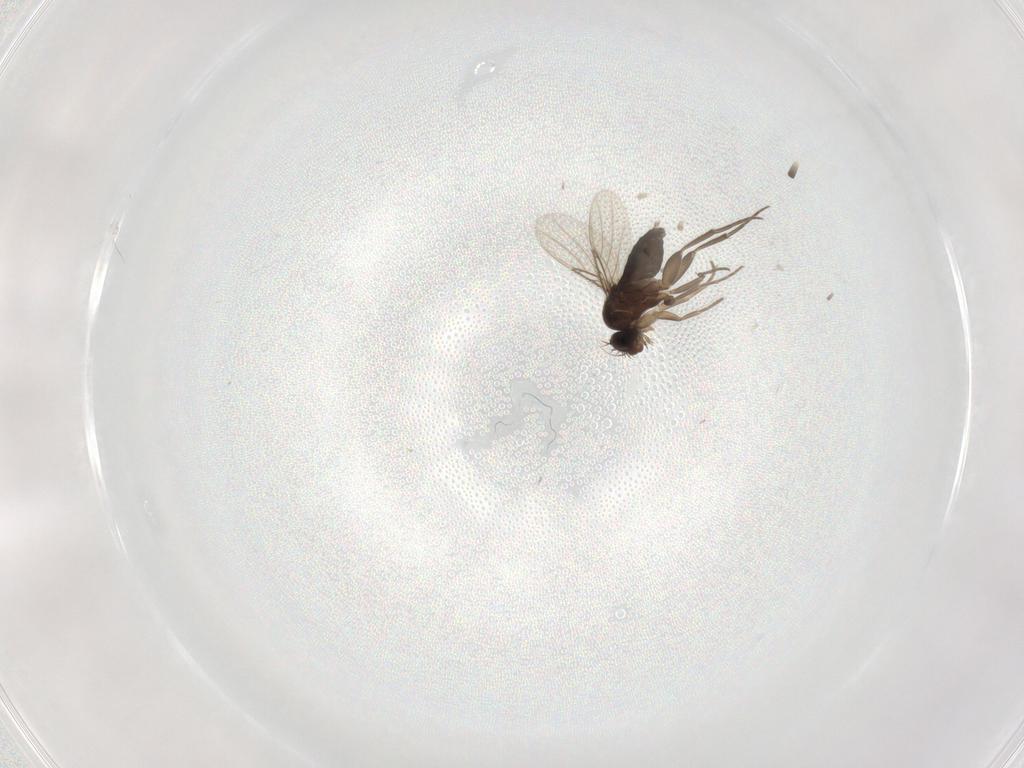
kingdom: Animalia
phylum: Arthropoda
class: Insecta
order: Diptera
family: Phoridae
